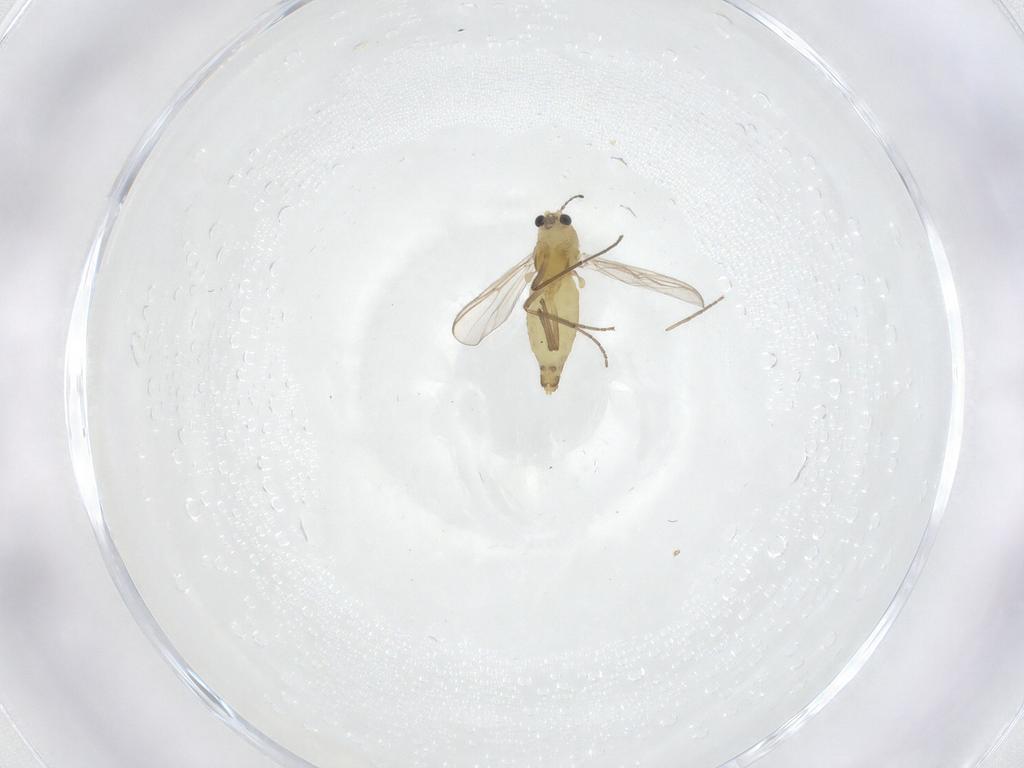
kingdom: Animalia
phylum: Arthropoda
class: Insecta
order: Diptera
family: Chironomidae
